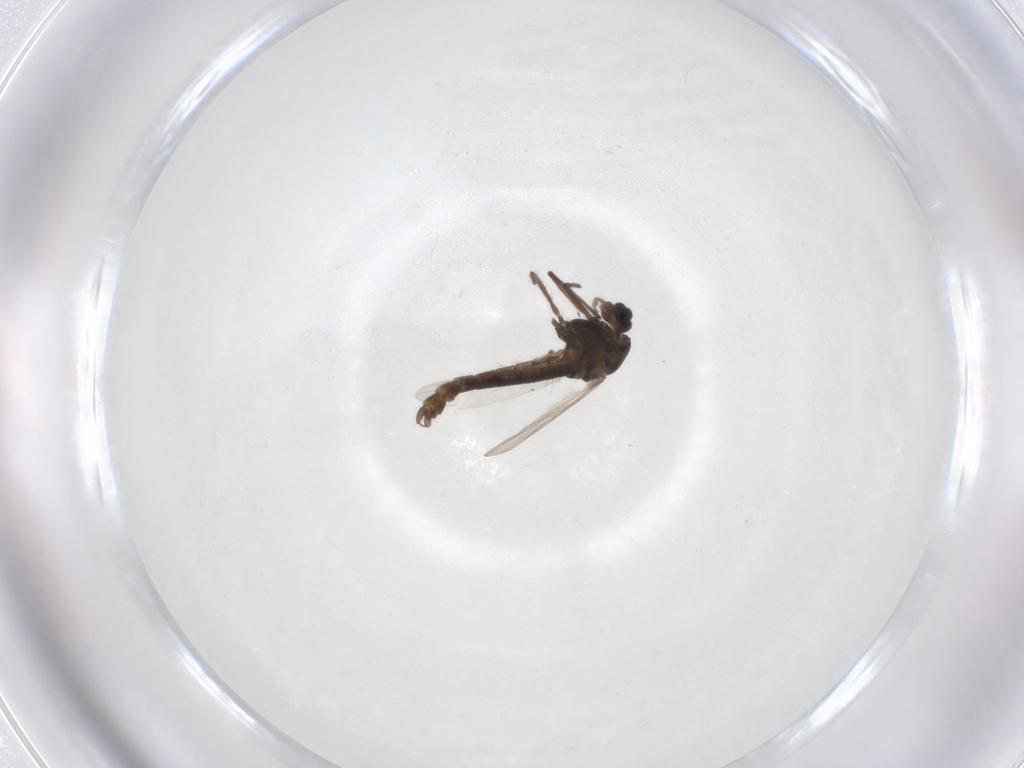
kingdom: Animalia
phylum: Arthropoda
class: Insecta
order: Diptera
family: Chironomidae
